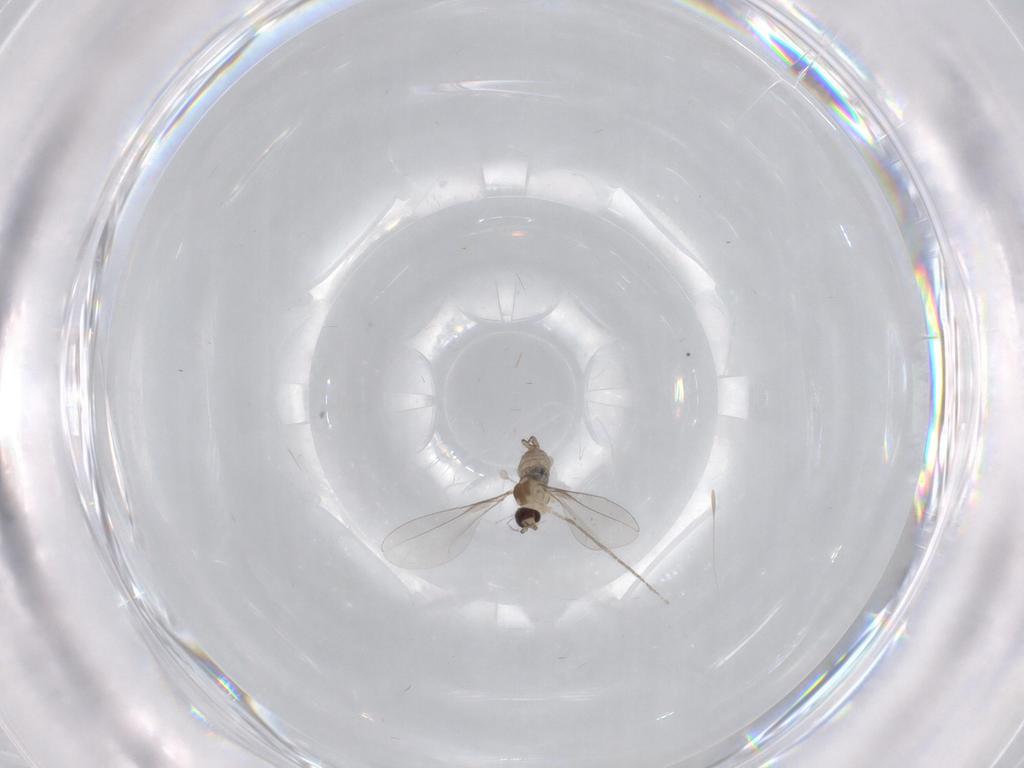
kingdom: Animalia
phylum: Arthropoda
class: Insecta
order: Diptera
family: Cecidomyiidae
